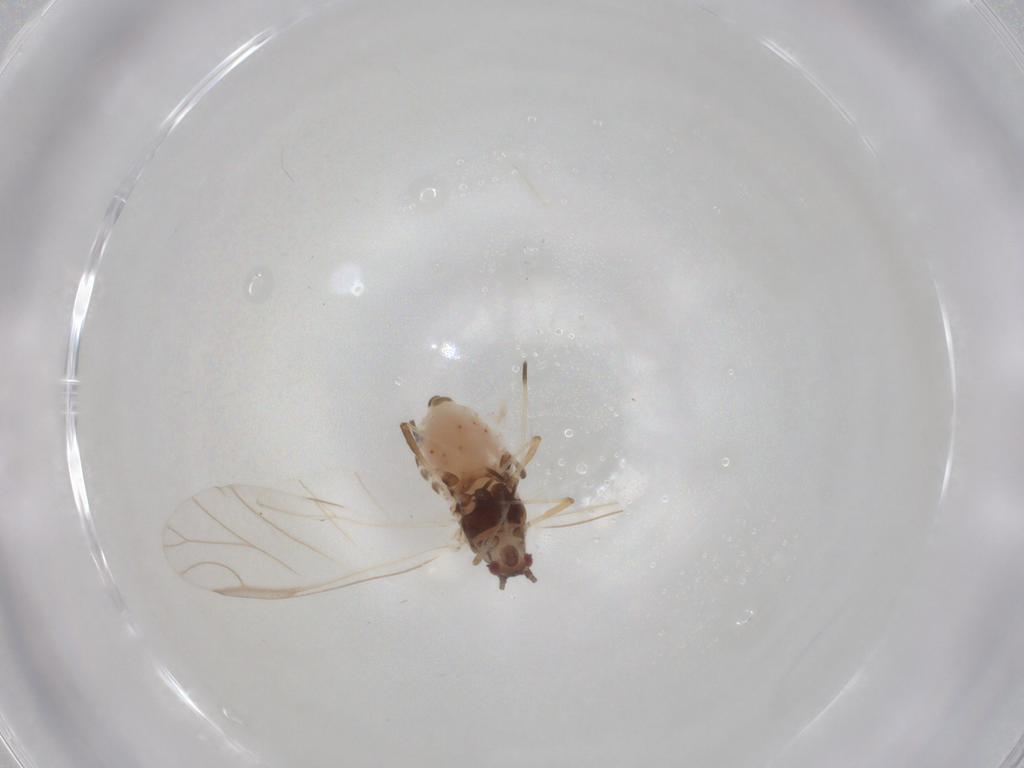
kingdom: Animalia
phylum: Arthropoda
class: Insecta
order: Hemiptera
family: Aphididae
